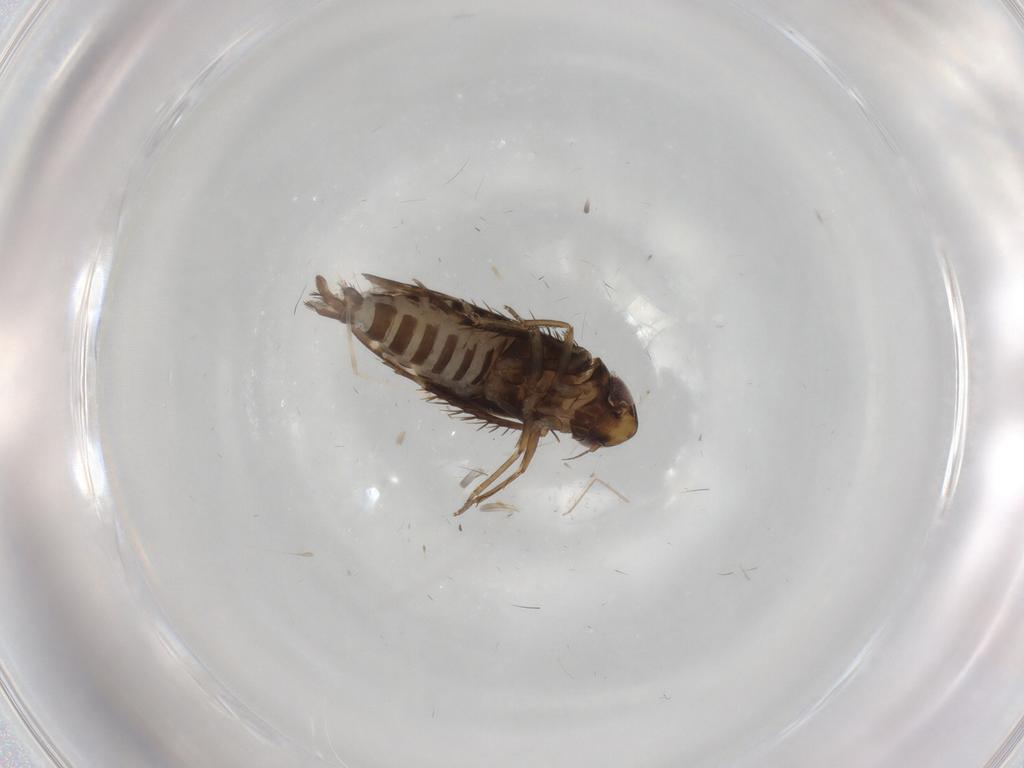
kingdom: Animalia
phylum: Arthropoda
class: Insecta
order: Hemiptera
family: Cicadellidae
